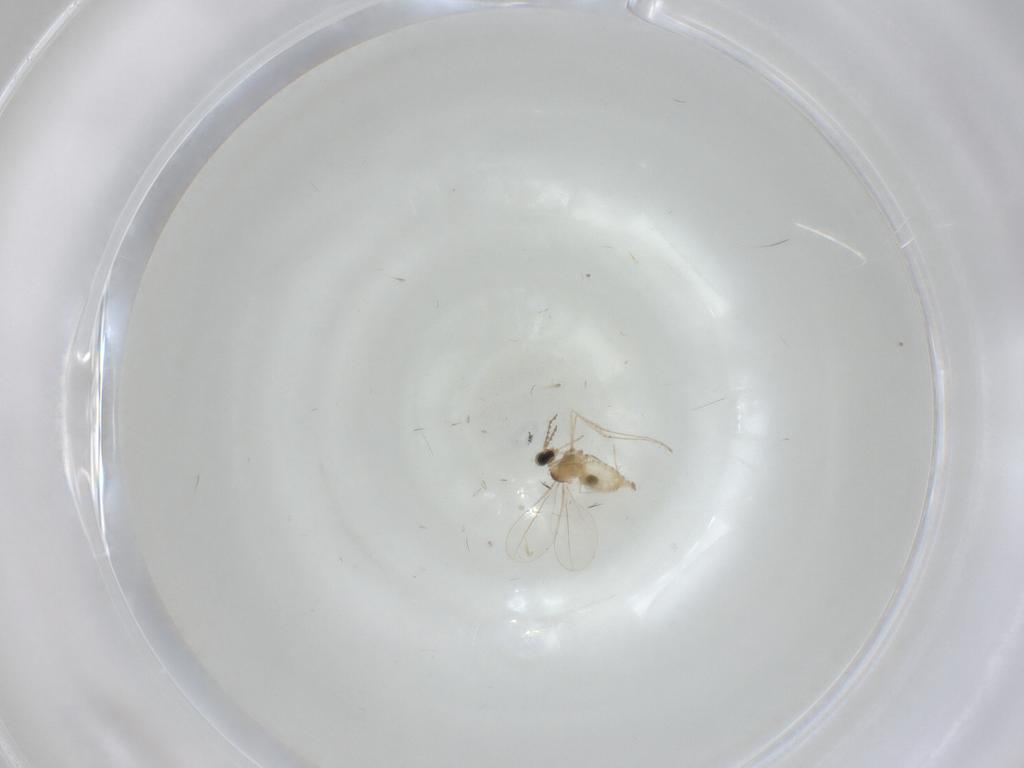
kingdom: Animalia
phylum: Arthropoda
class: Insecta
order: Diptera
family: Cecidomyiidae
